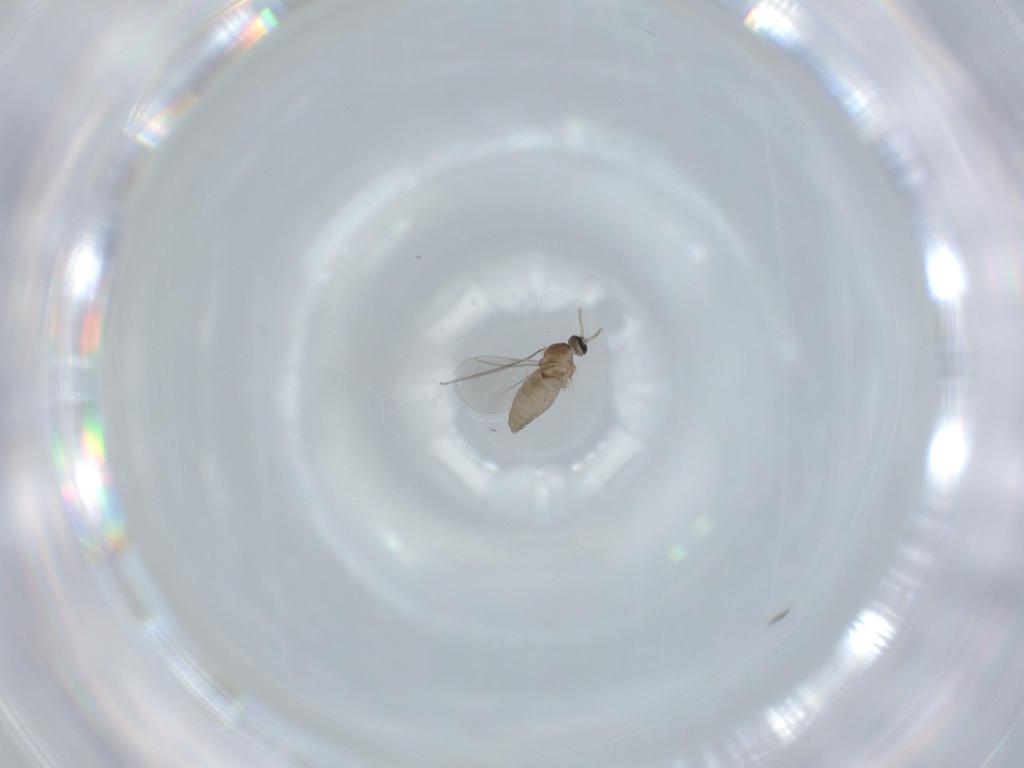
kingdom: Animalia
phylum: Arthropoda
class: Insecta
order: Diptera
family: Cecidomyiidae
